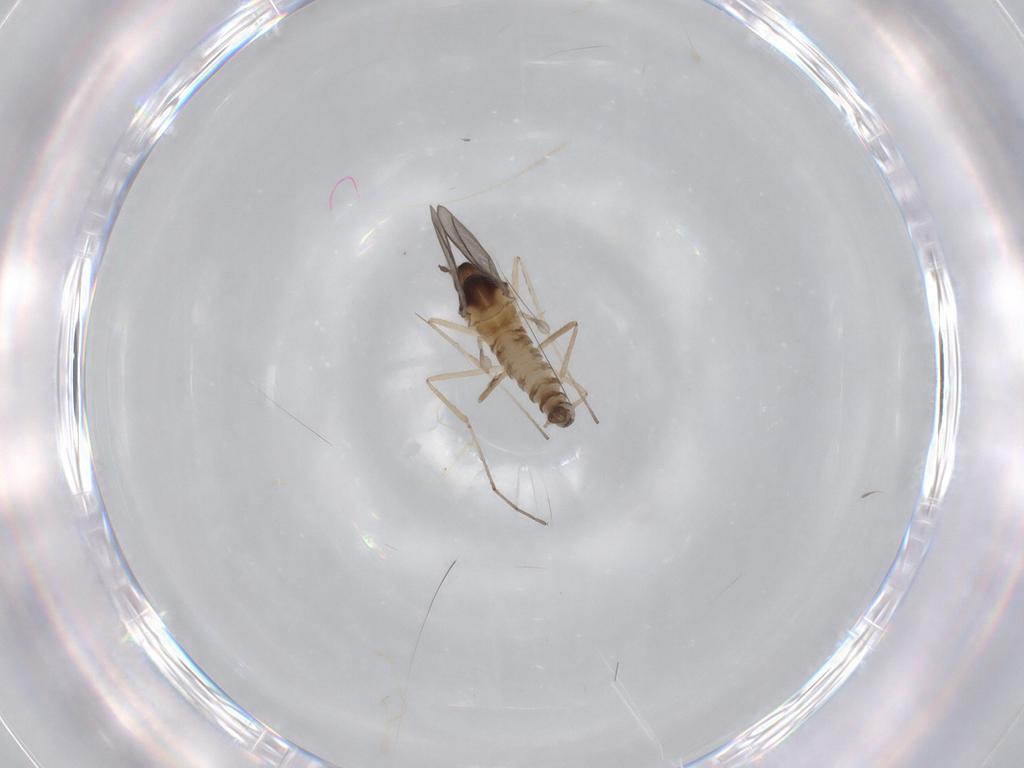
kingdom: Animalia
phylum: Arthropoda
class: Insecta
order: Diptera
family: Cecidomyiidae
